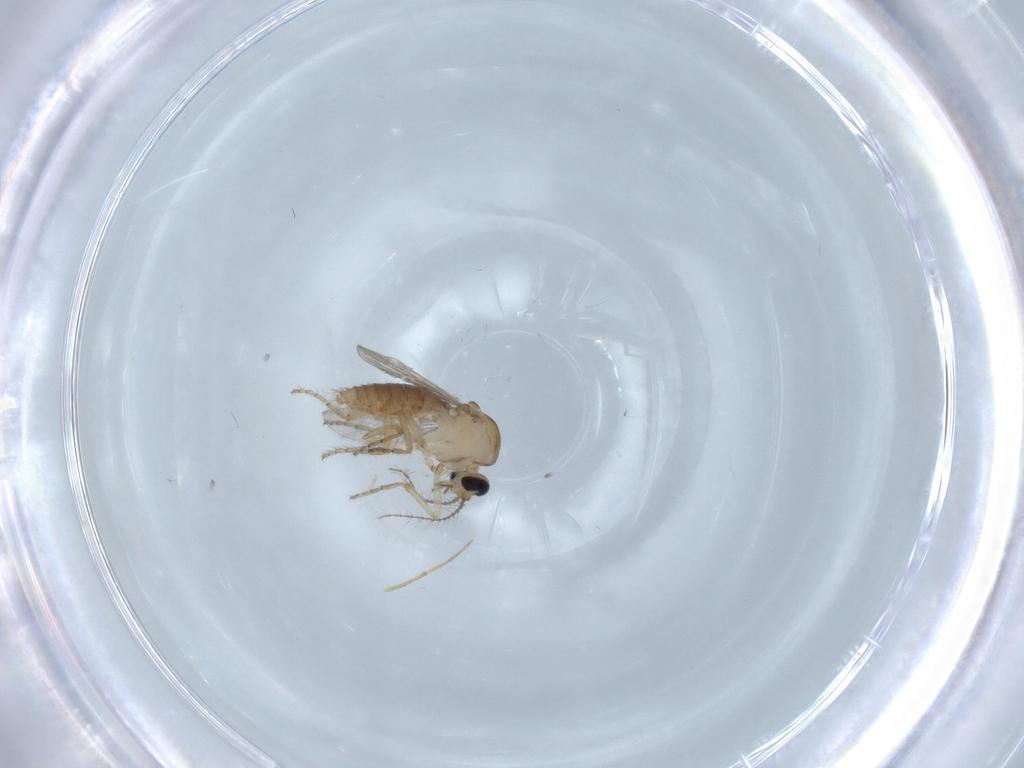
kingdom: Animalia
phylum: Arthropoda
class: Insecta
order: Diptera
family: Ceratopogonidae
